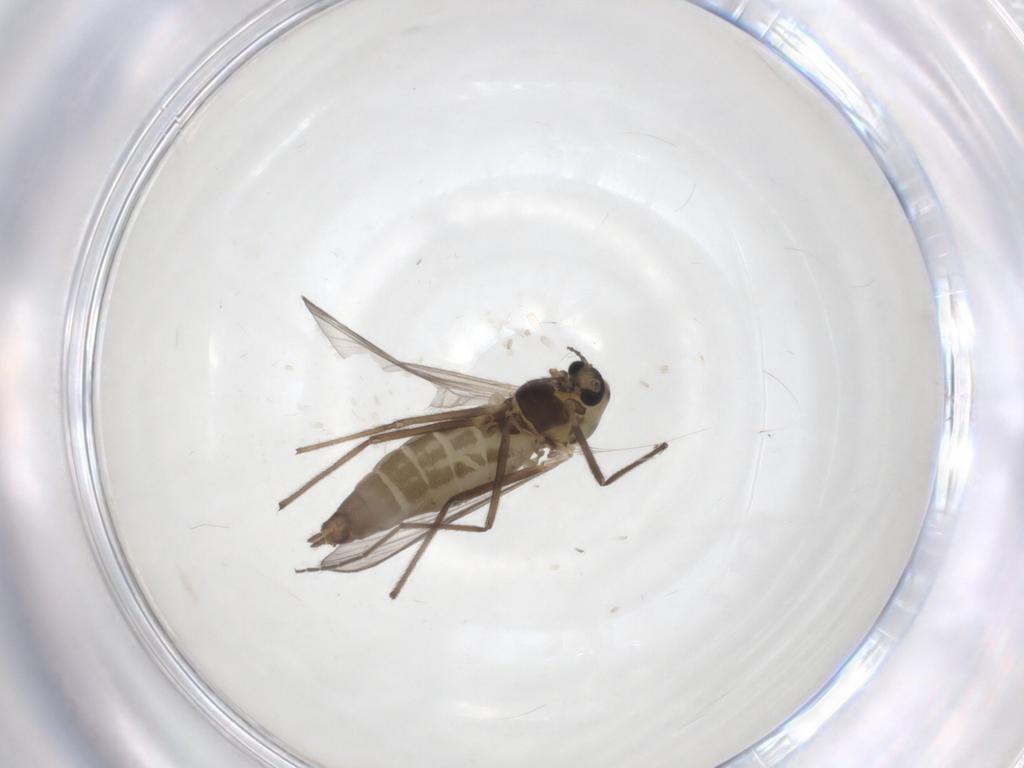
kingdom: Animalia
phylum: Arthropoda
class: Insecta
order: Diptera
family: Chironomidae
